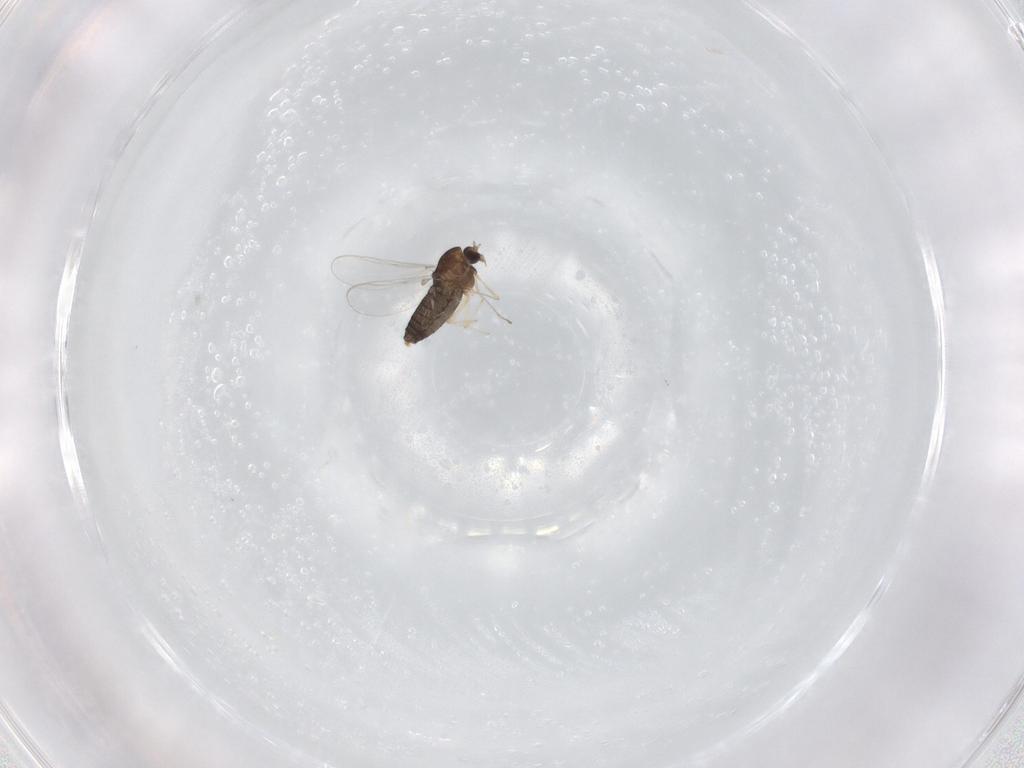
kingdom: Animalia
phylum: Arthropoda
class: Insecta
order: Diptera
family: Chironomidae
